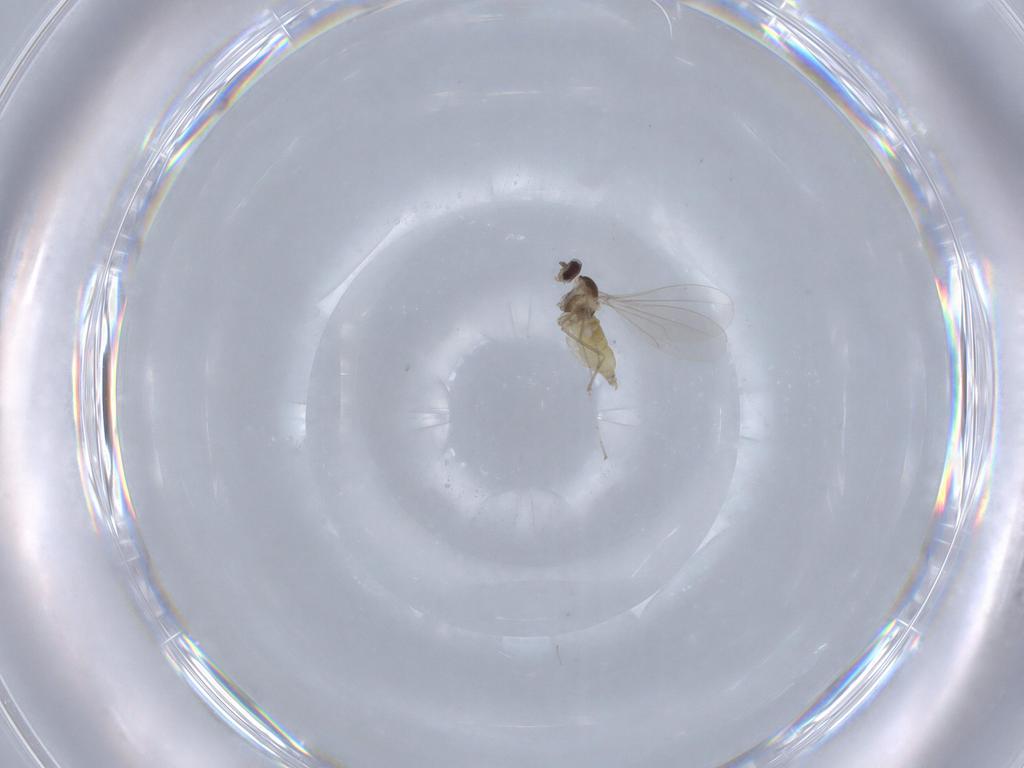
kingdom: Animalia
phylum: Arthropoda
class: Insecta
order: Diptera
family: Cecidomyiidae
